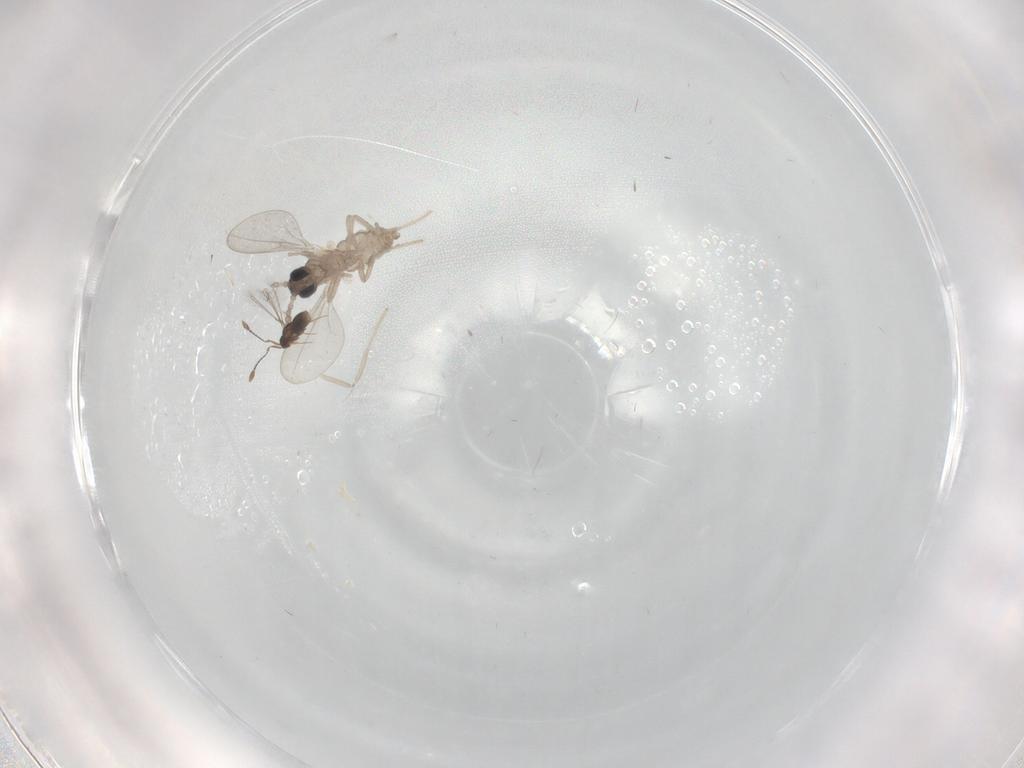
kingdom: Animalia
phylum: Arthropoda
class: Insecta
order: Diptera
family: Cecidomyiidae
